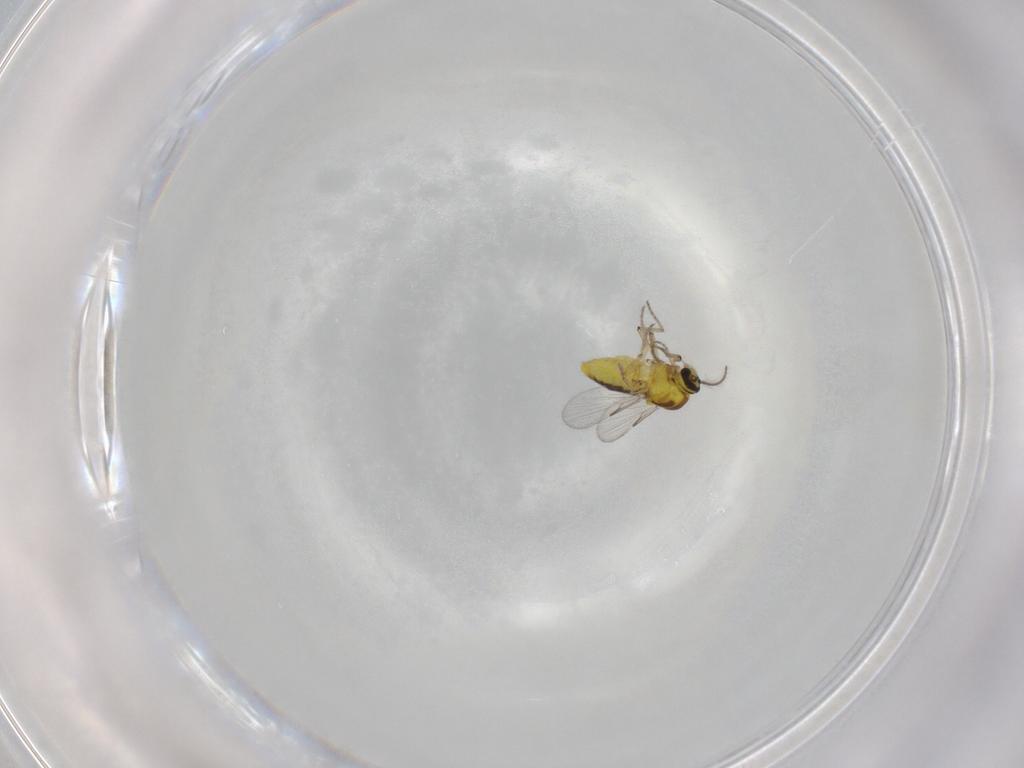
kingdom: Animalia
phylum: Arthropoda
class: Insecta
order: Diptera
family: Ceratopogonidae
